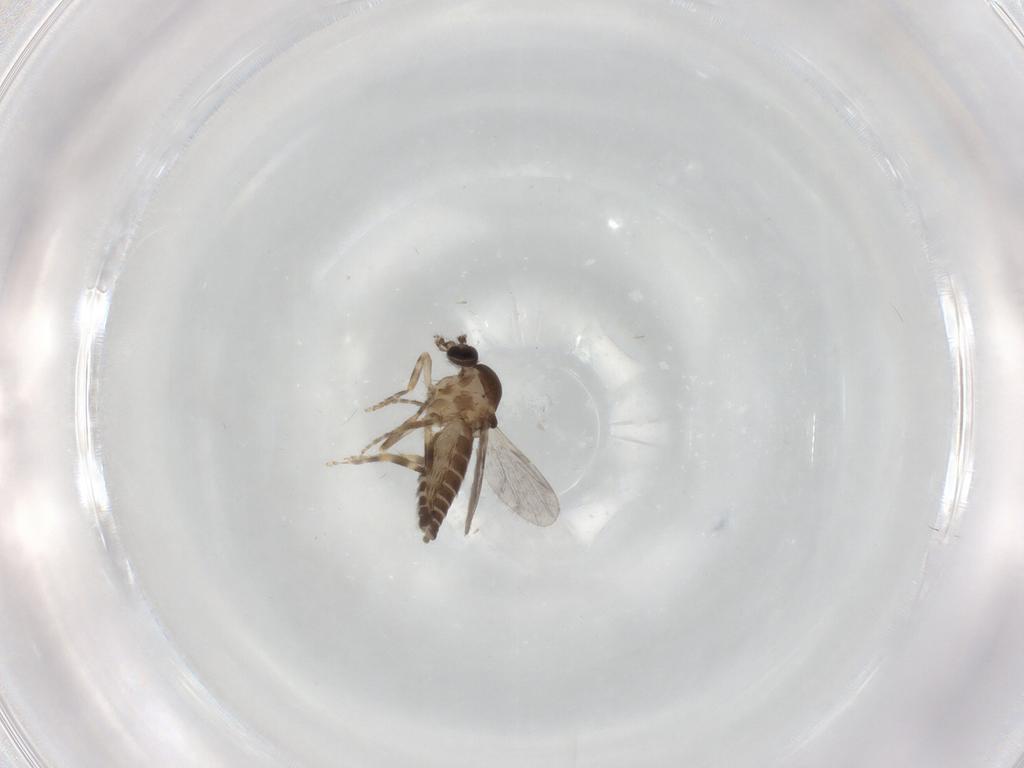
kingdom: Animalia
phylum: Arthropoda
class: Insecta
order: Diptera
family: Ceratopogonidae
